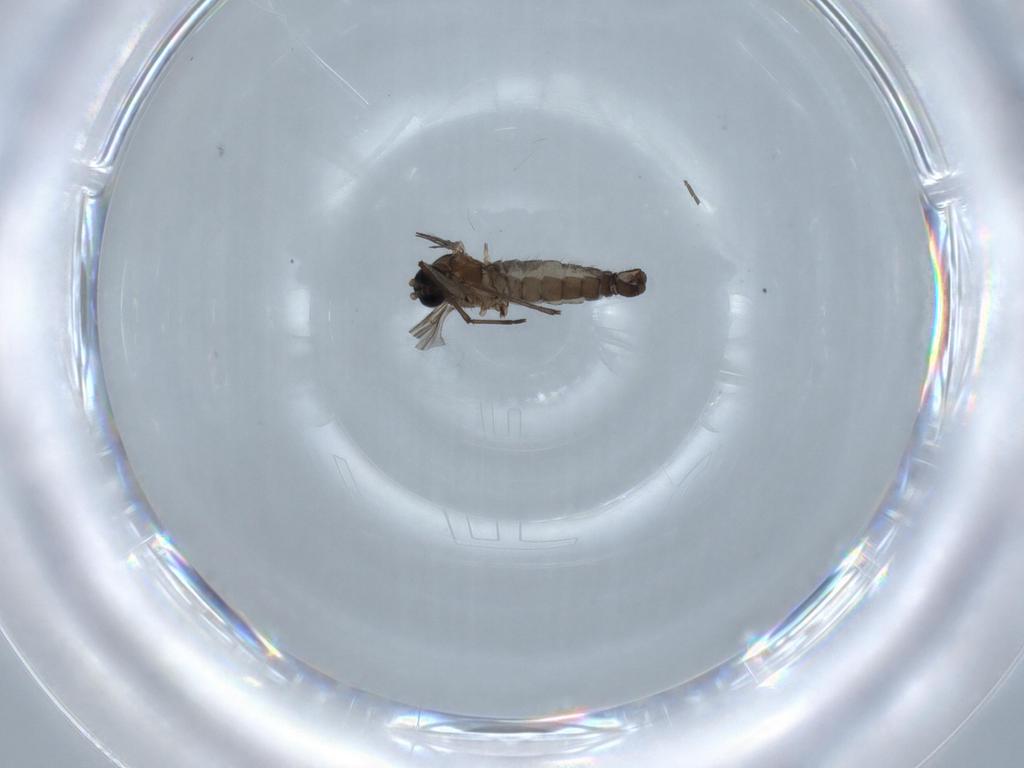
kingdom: Animalia
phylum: Arthropoda
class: Insecta
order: Diptera
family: Sciaridae
